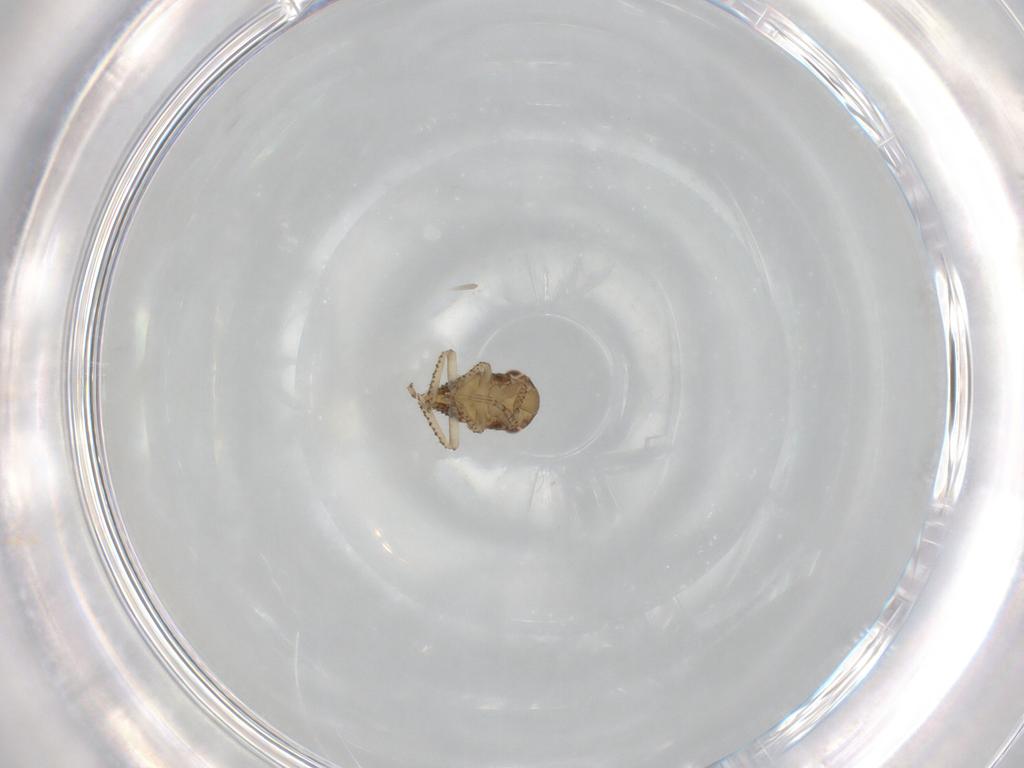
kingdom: Animalia
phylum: Arthropoda
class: Insecta
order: Hemiptera
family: Cicadellidae
